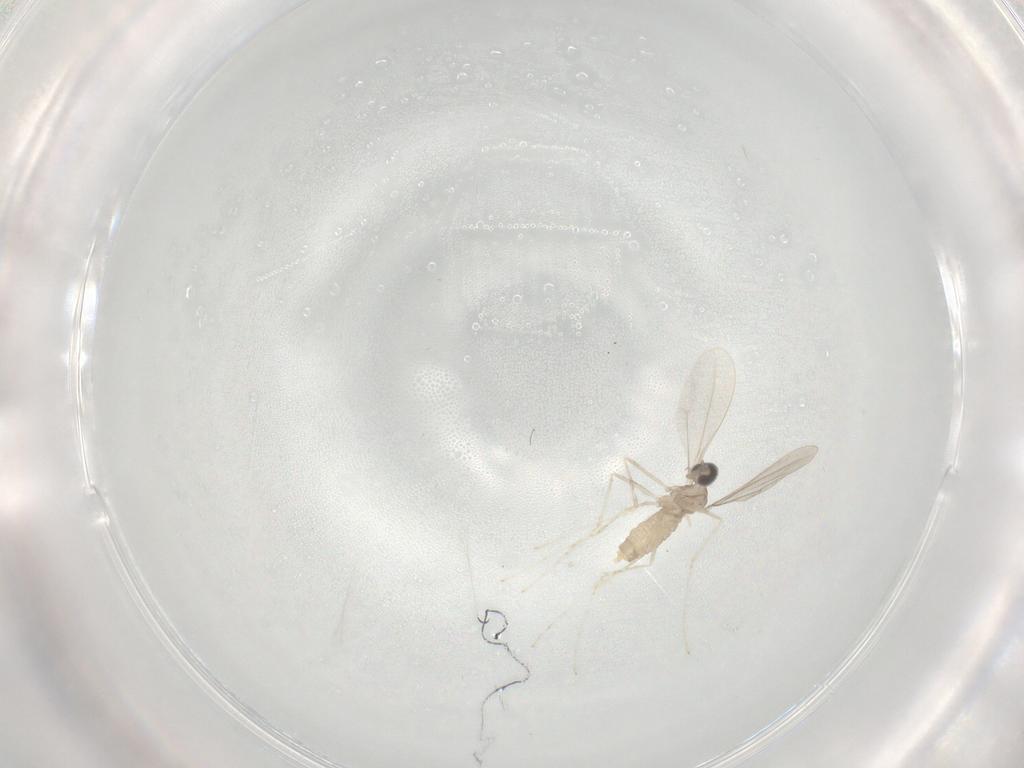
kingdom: Animalia
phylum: Arthropoda
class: Insecta
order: Diptera
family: Cecidomyiidae
